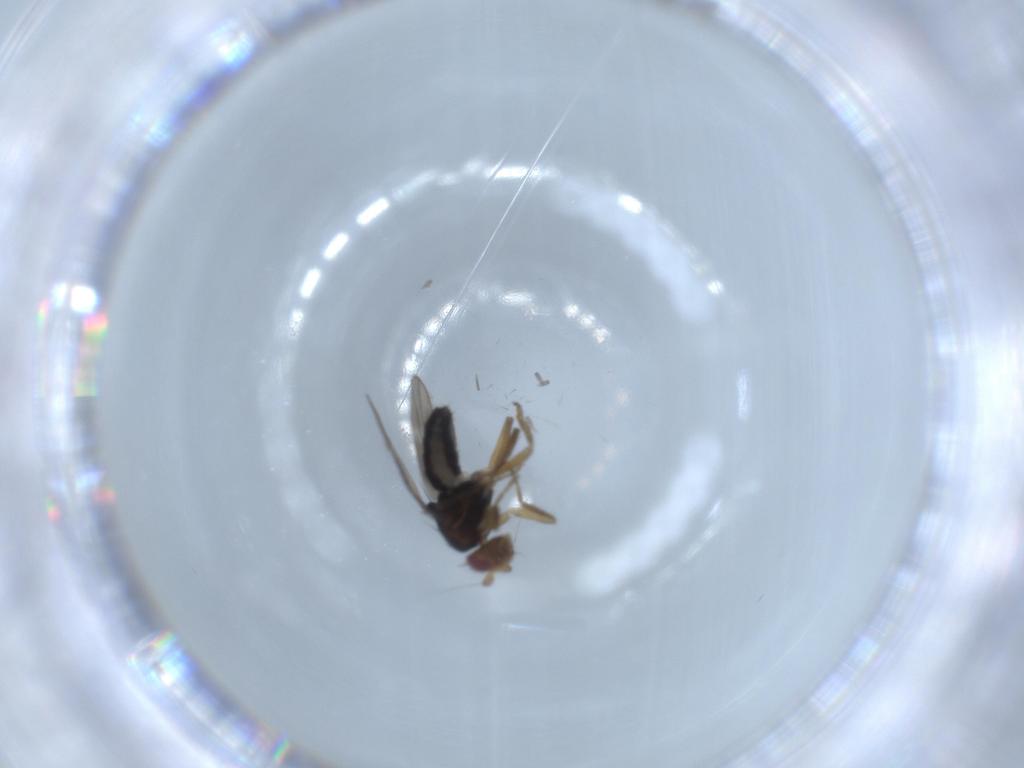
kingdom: Animalia
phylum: Arthropoda
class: Insecta
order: Diptera
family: Sphaeroceridae
